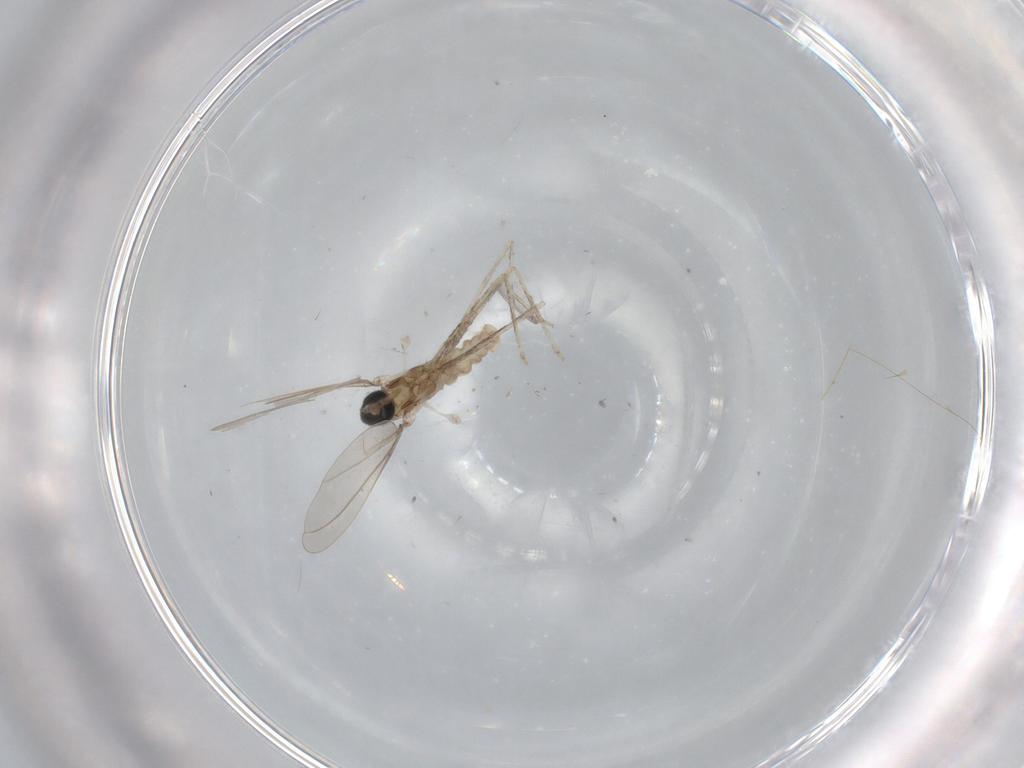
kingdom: Animalia
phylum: Arthropoda
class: Insecta
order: Diptera
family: Cecidomyiidae
